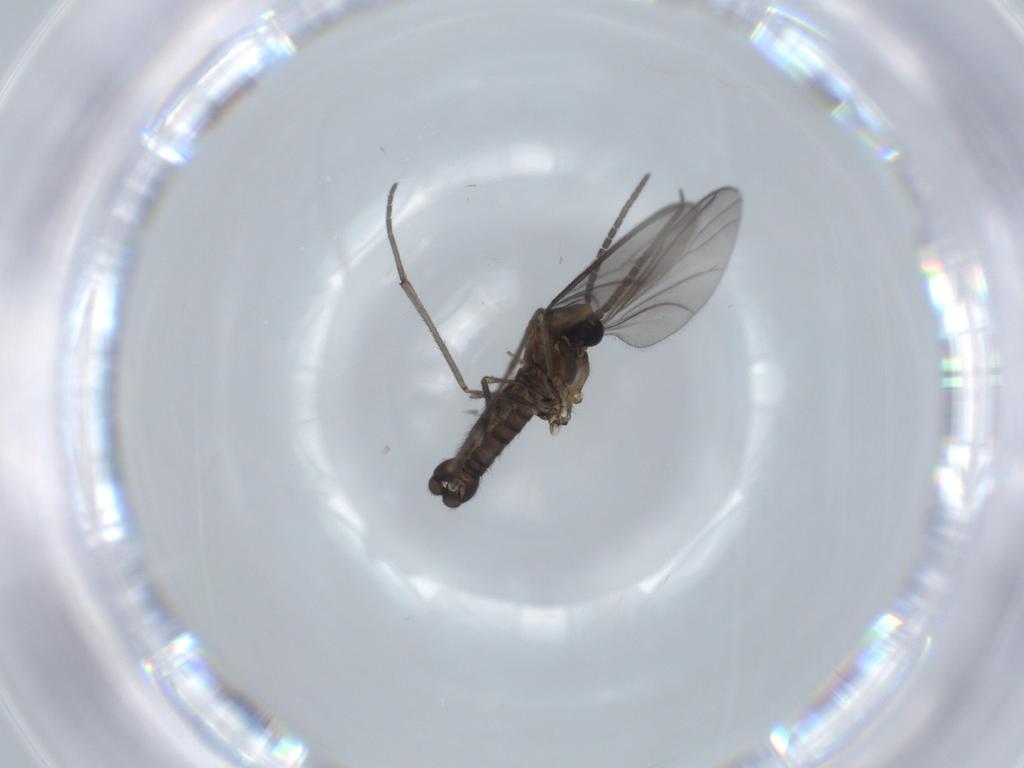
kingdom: Animalia
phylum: Arthropoda
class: Insecta
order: Diptera
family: Sciaridae
